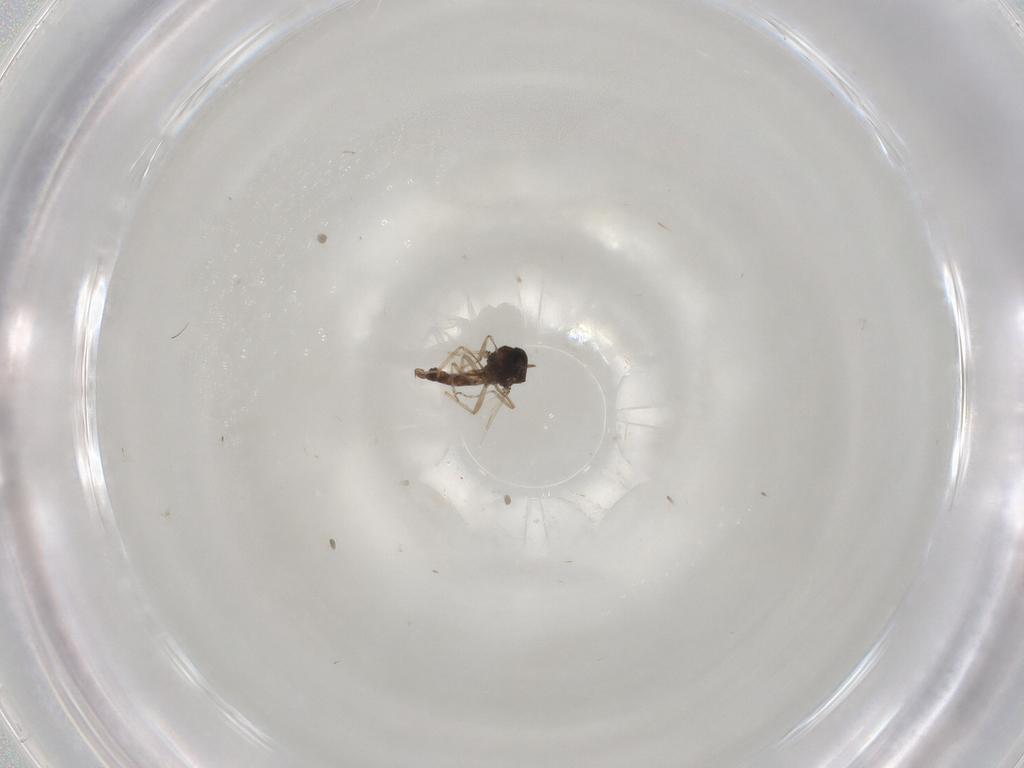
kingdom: Animalia
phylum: Arthropoda
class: Insecta
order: Diptera
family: Ceratopogonidae
